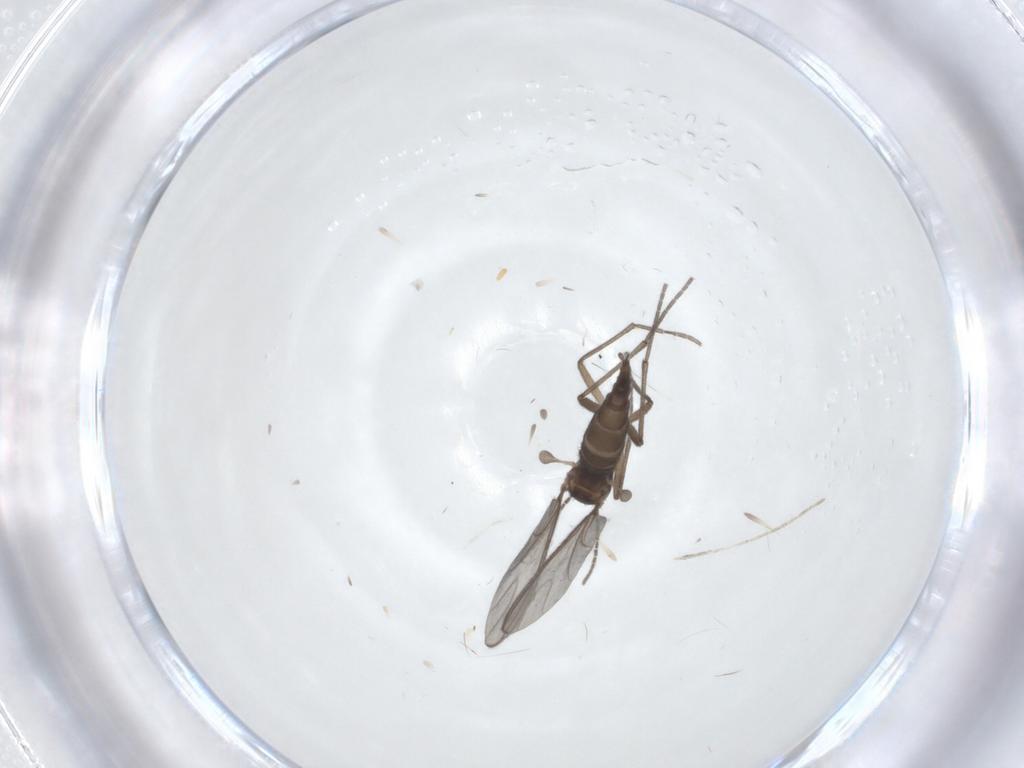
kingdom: Animalia
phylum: Arthropoda
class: Insecta
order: Diptera
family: Sciaridae
